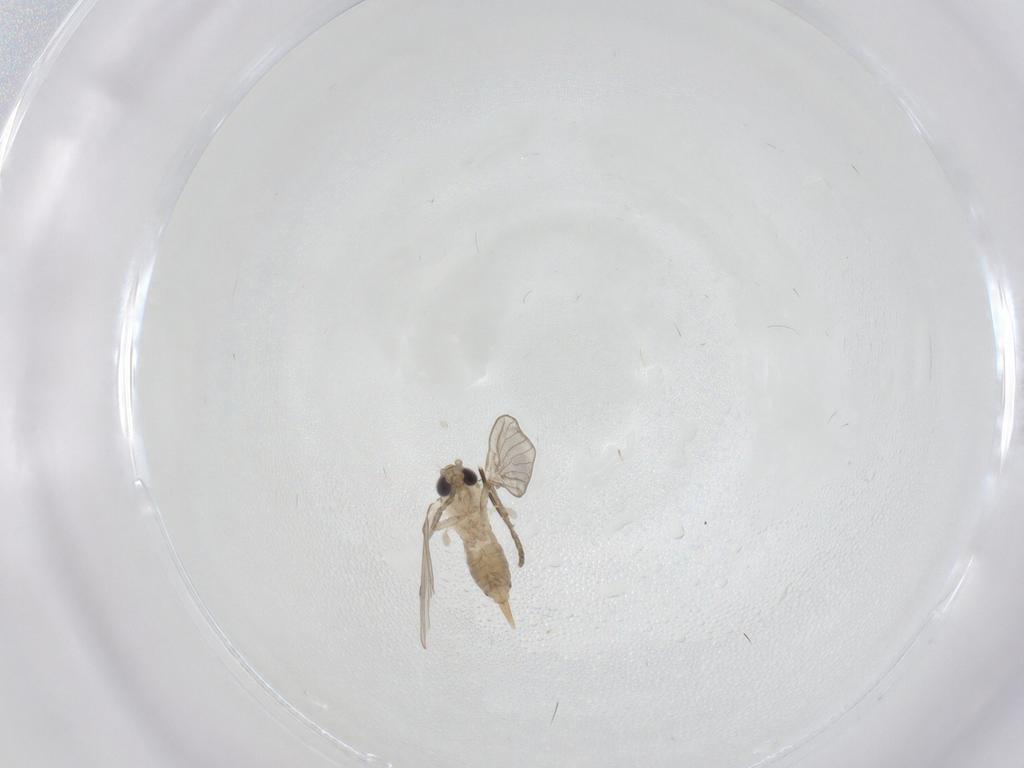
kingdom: Animalia
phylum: Arthropoda
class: Insecta
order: Diptera
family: Psychodidae
